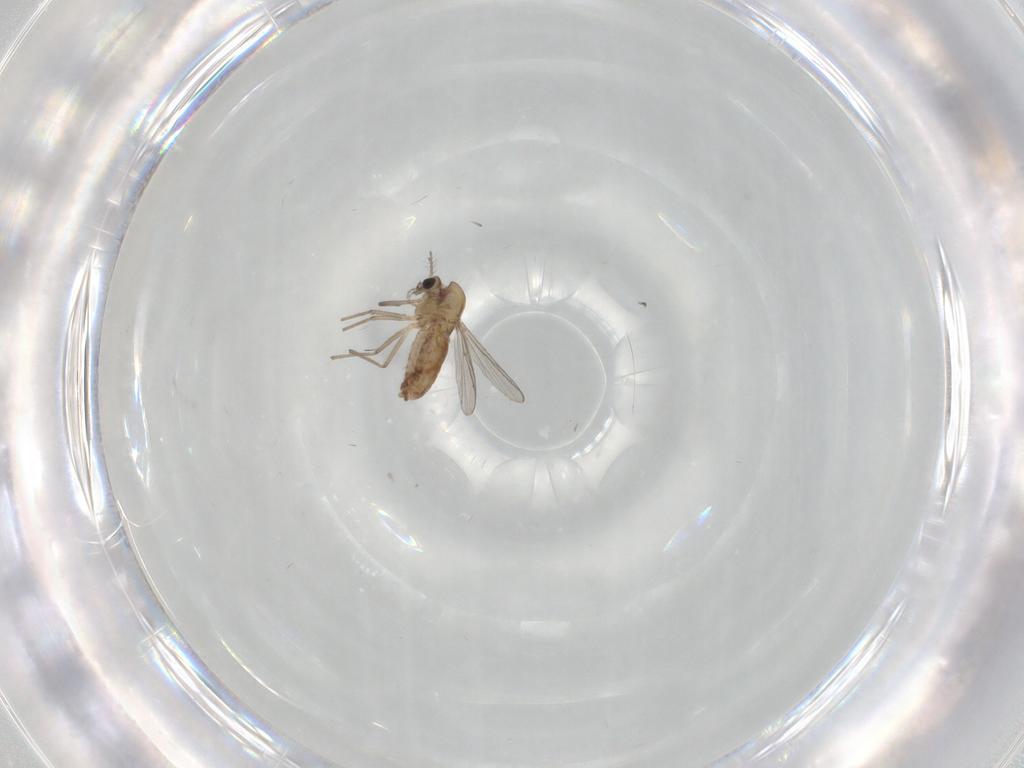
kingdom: Animalia
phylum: Arthropoda
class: Insecta
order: Diptera
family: Chironomidae
